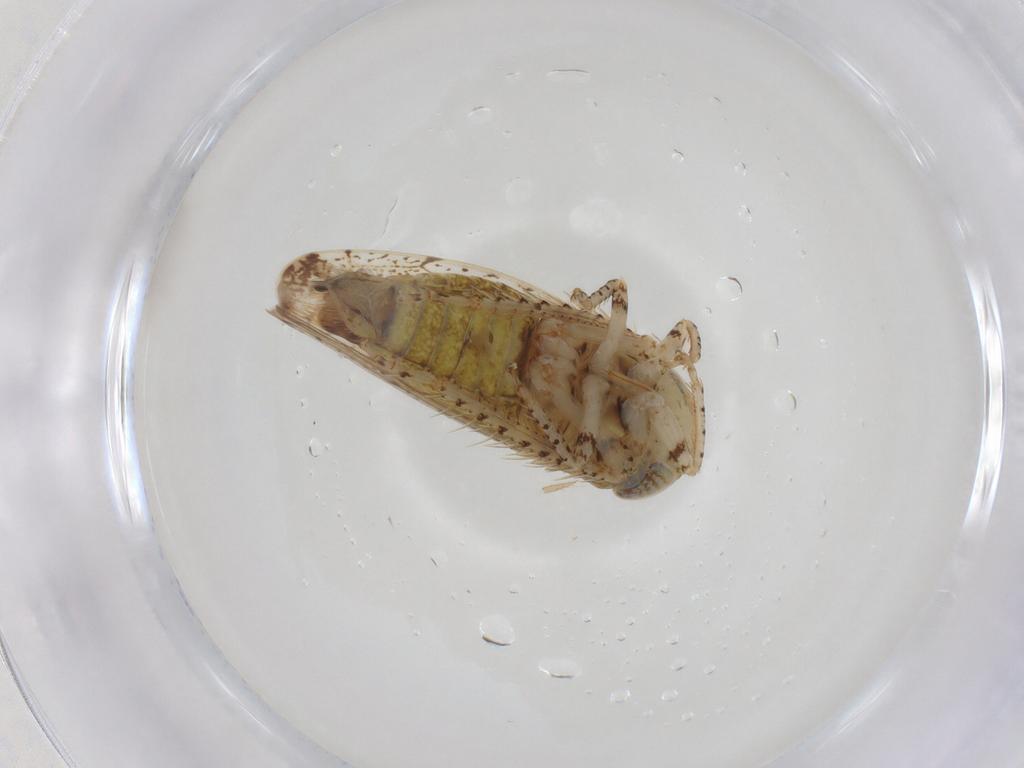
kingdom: Animalia
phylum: Arthropoda
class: Insecta
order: Hemiptera
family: Cicadellidae
